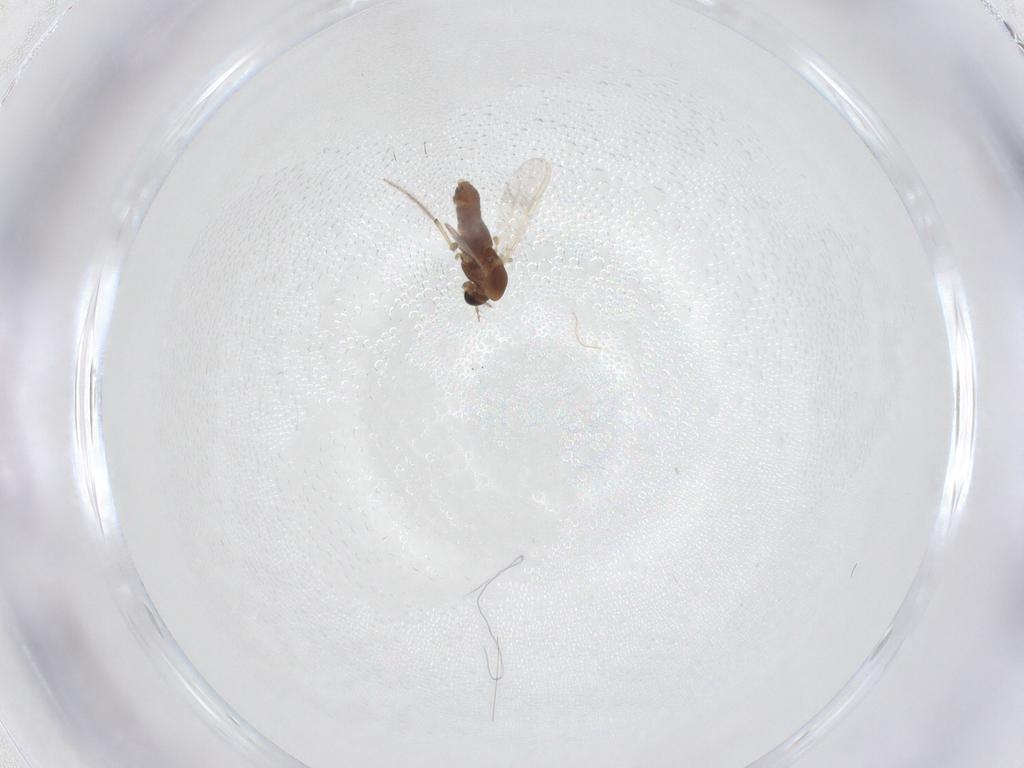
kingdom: Animalia
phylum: Arthropoda
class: Insecta
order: Diptera
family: Chironomidae
